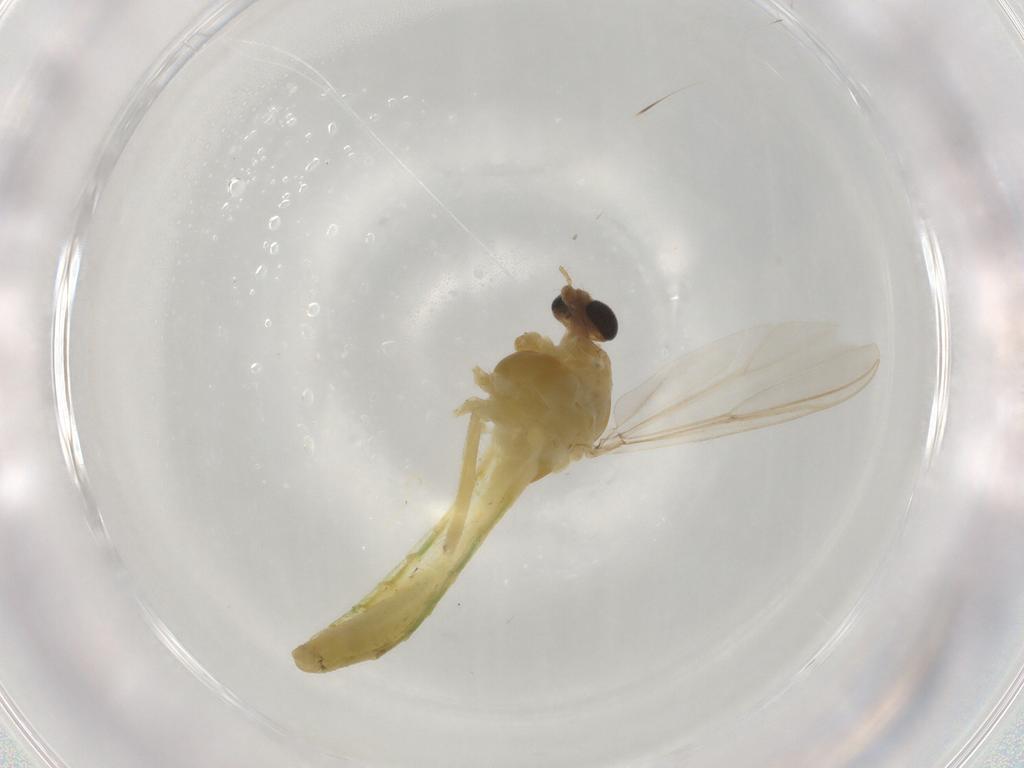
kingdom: Animalia
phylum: Arthropoda
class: Insecta
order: Diptera
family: Chironomidae
